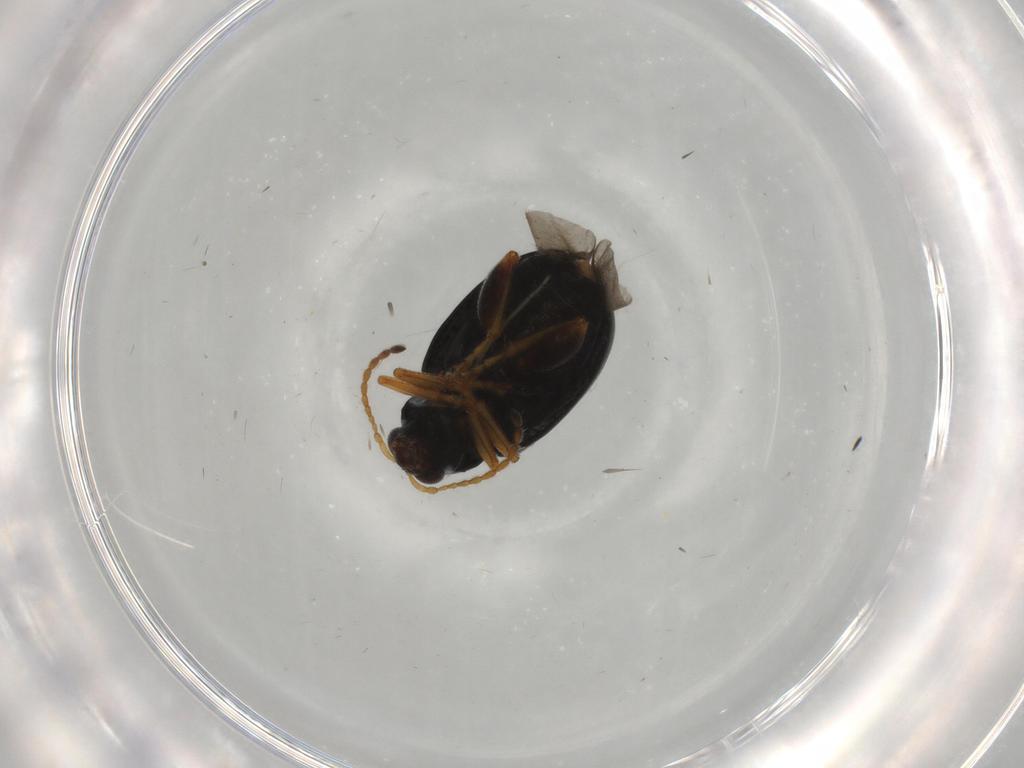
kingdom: Animalia
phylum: Arthropoda
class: Insecta
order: Coleoptera
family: Chrysomelidae
